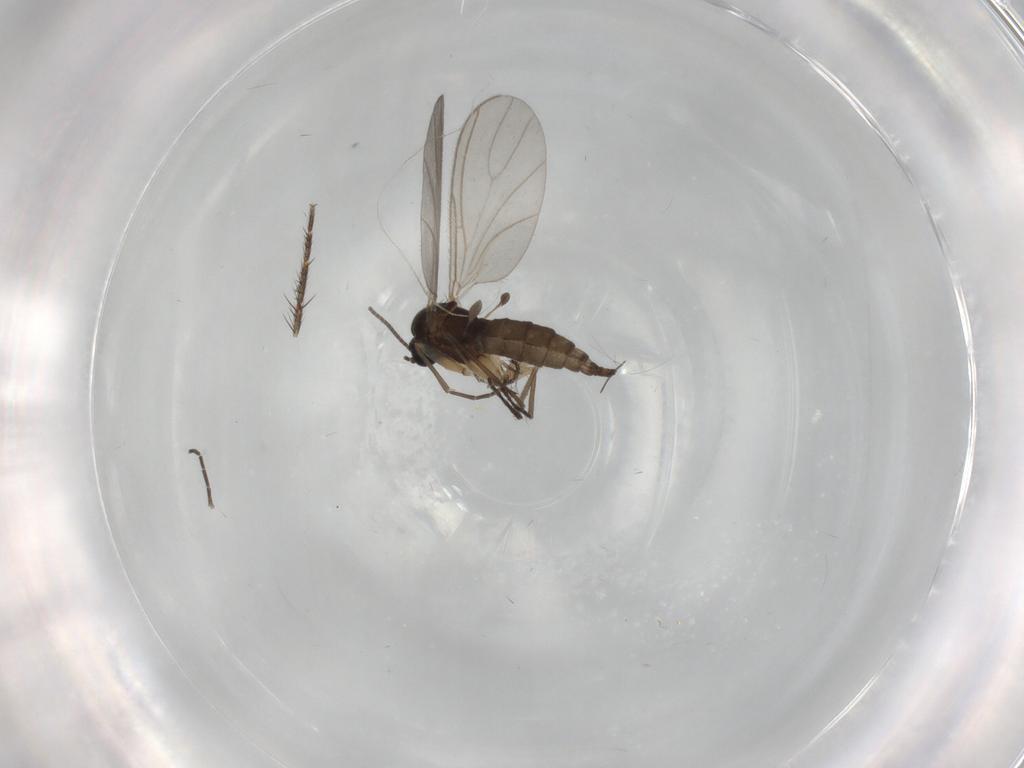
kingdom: Animalia
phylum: Arthropoda
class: Insecta
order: Diptera
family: Sciaridae
